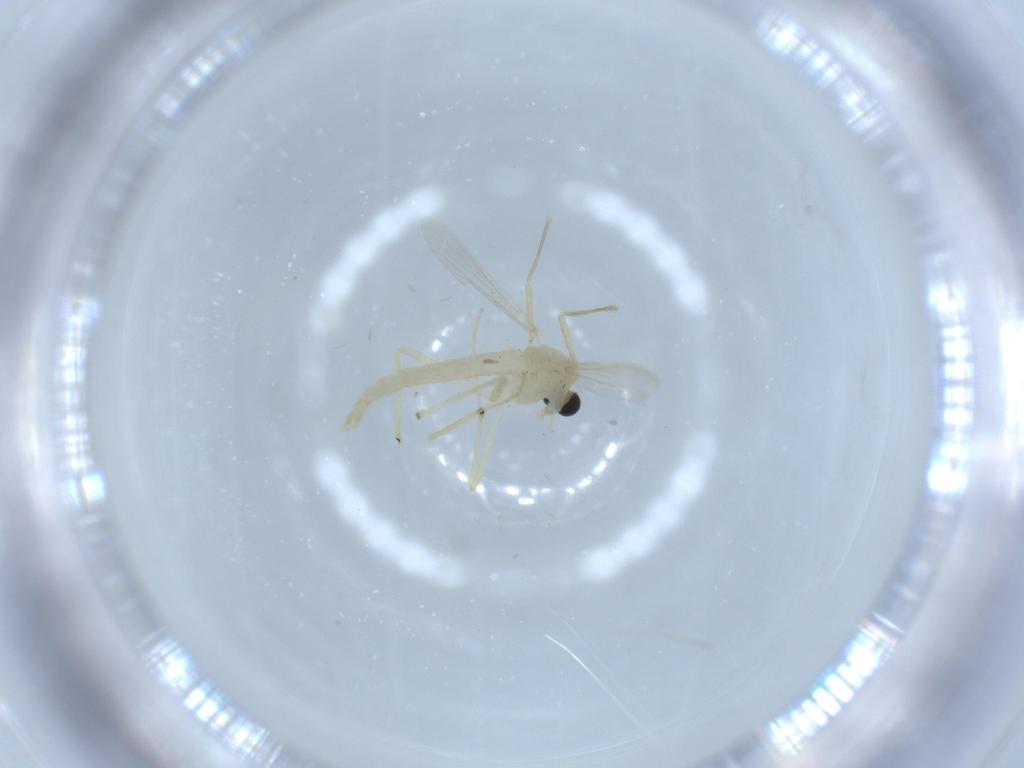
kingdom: Animalia
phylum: Arthropoda
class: Insecta
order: Diptera
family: Chironomidae
